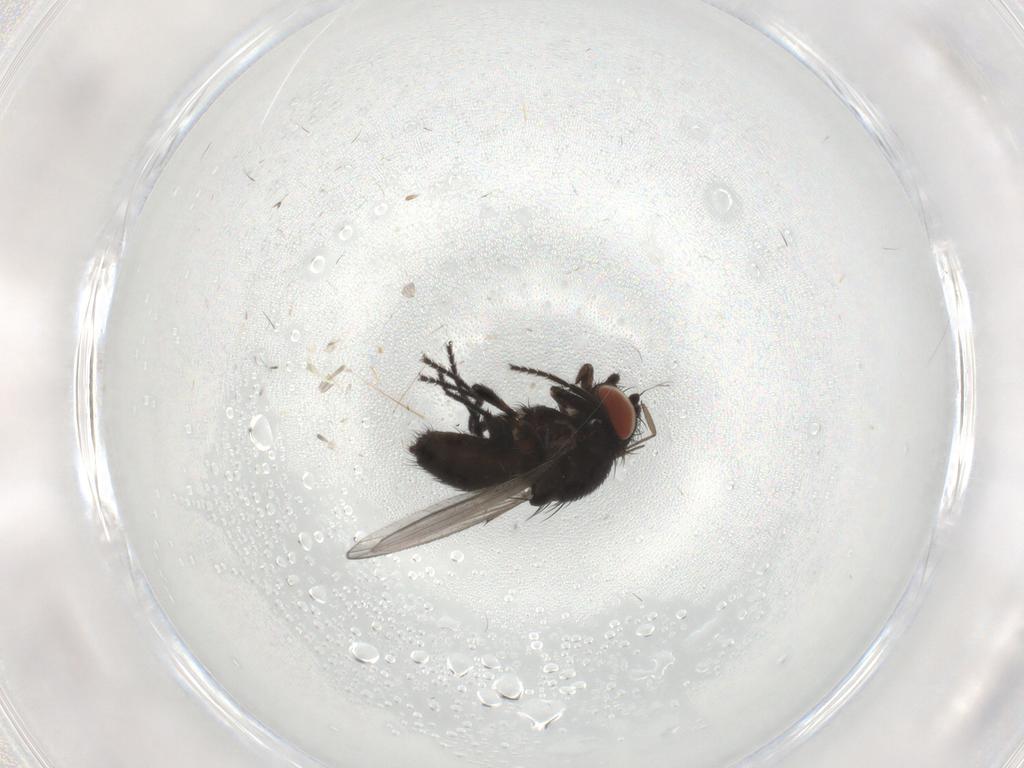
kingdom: Animalia
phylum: Arthropoda
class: Insecta
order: Diptera
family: Milichiidae
